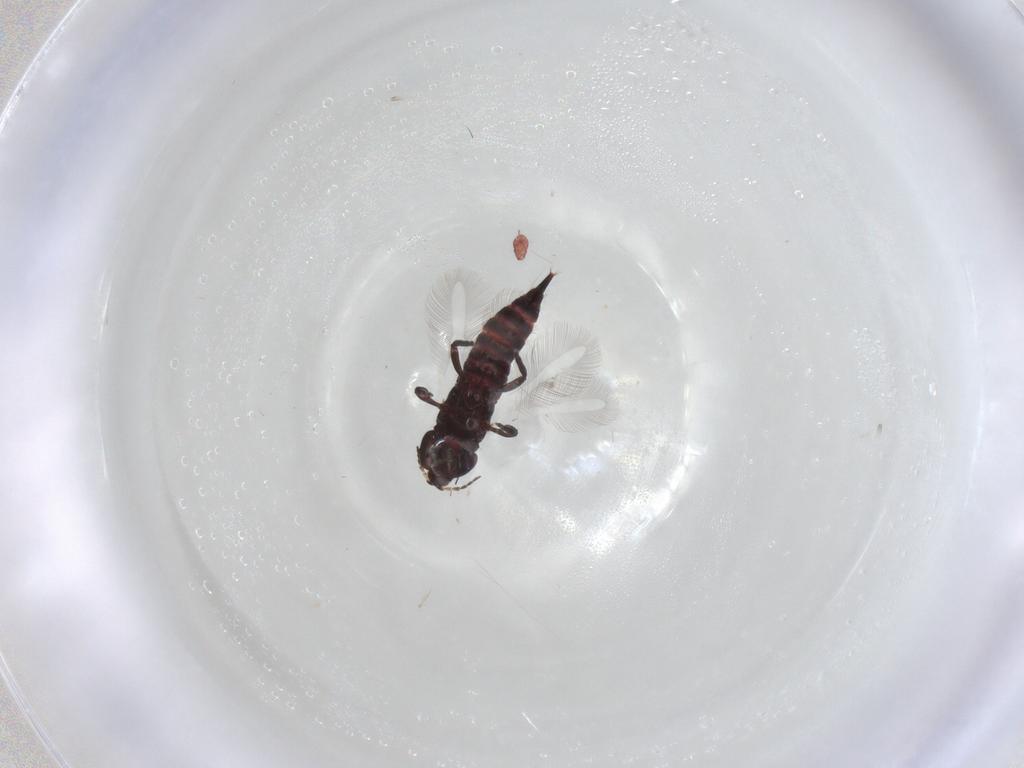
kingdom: Animalia
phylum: Arthropoda
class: Insecta
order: Thysanoptera
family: Phlaeothripidae
